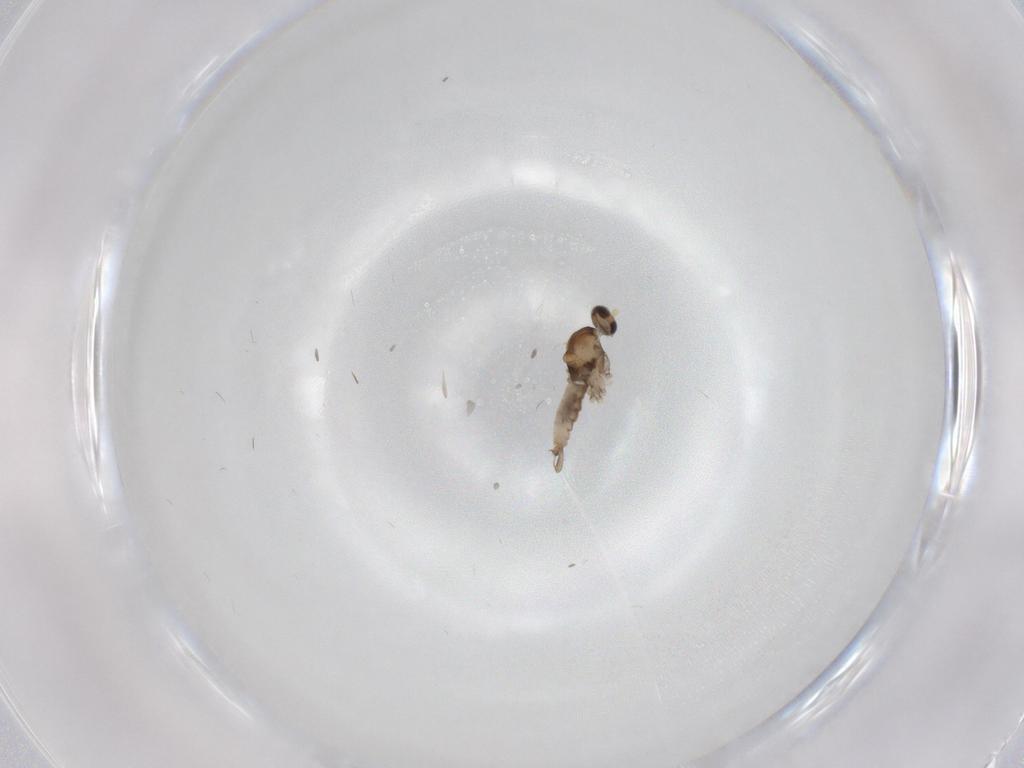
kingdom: Animalia
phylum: Arthropoda
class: Insecta
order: Diptera
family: Cecidomyiidae
